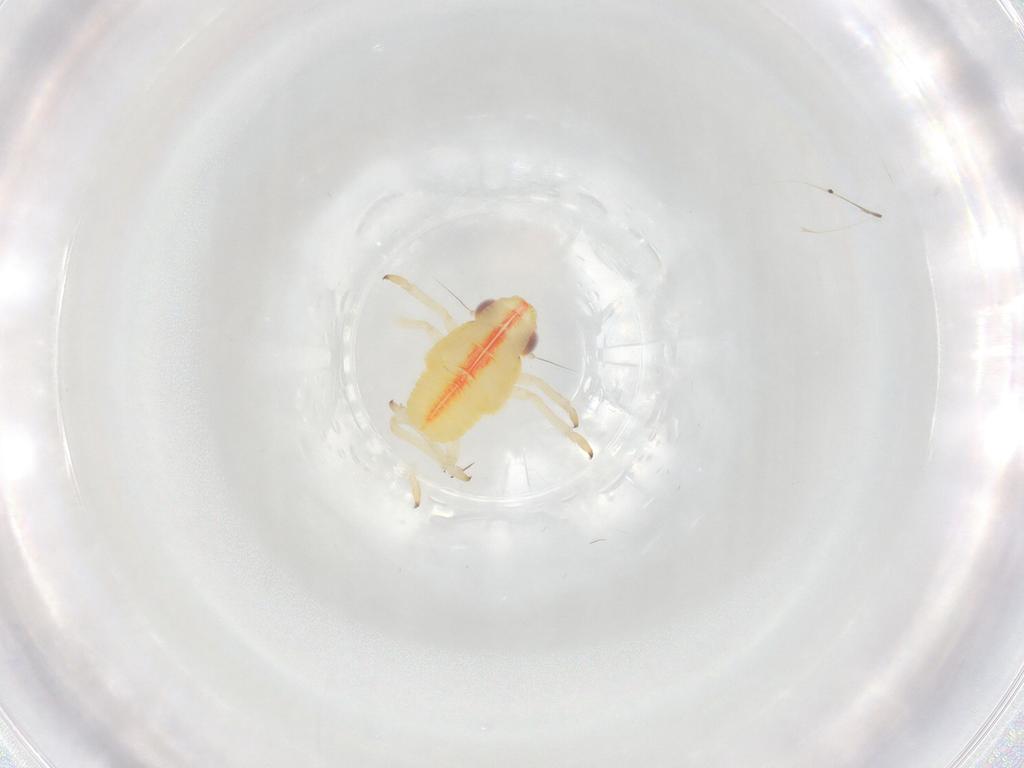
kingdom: Animalia
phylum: Arthropoda
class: Insecta
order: Hemiptera
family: Caliscelidae
